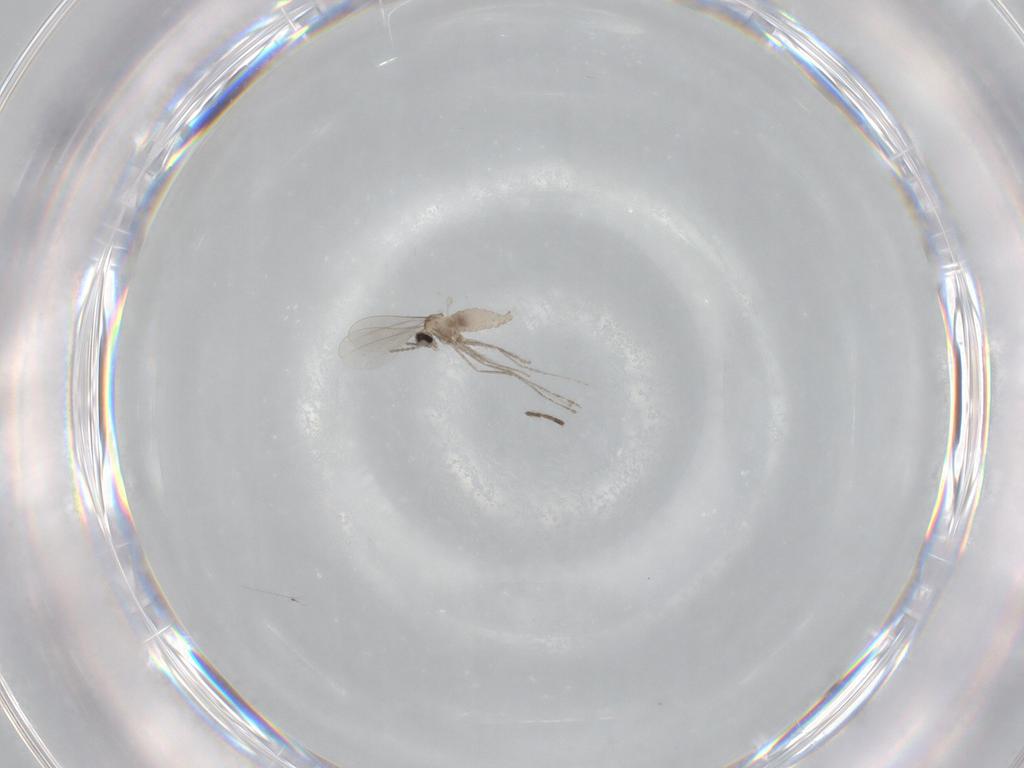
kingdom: Animalia
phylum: Arthropoda
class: Insecta
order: Diptera
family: Cecidomyiidae
